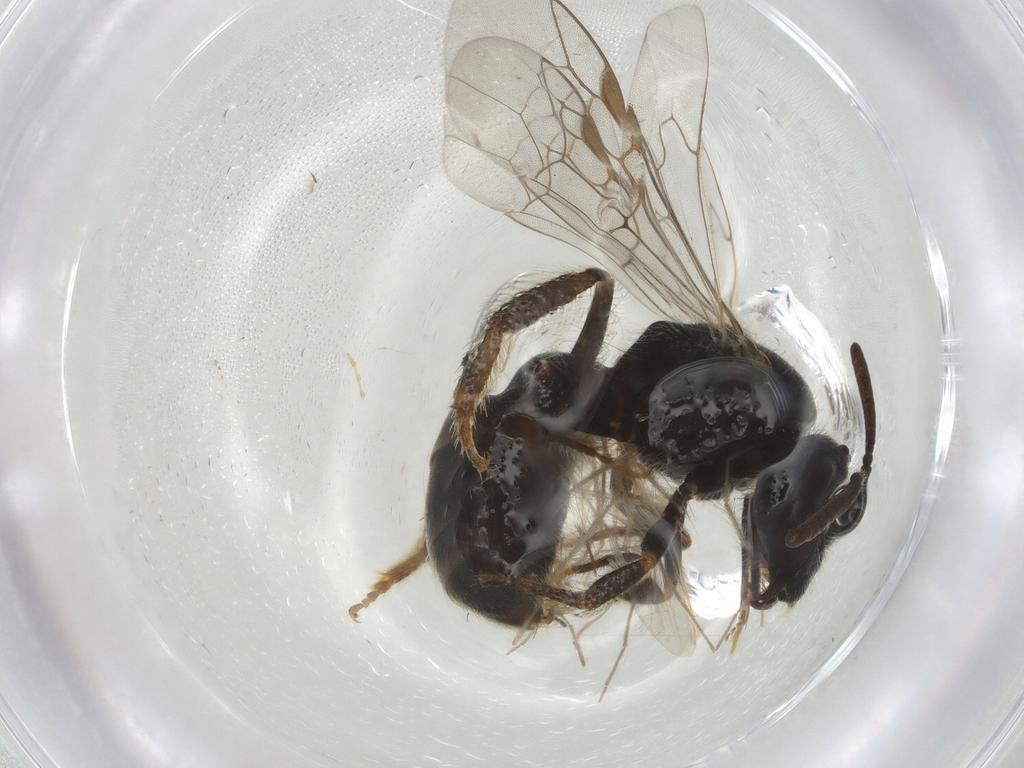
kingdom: Animalia
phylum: Arthropoda
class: Insecta
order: Hymenoptera
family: Halictidae
